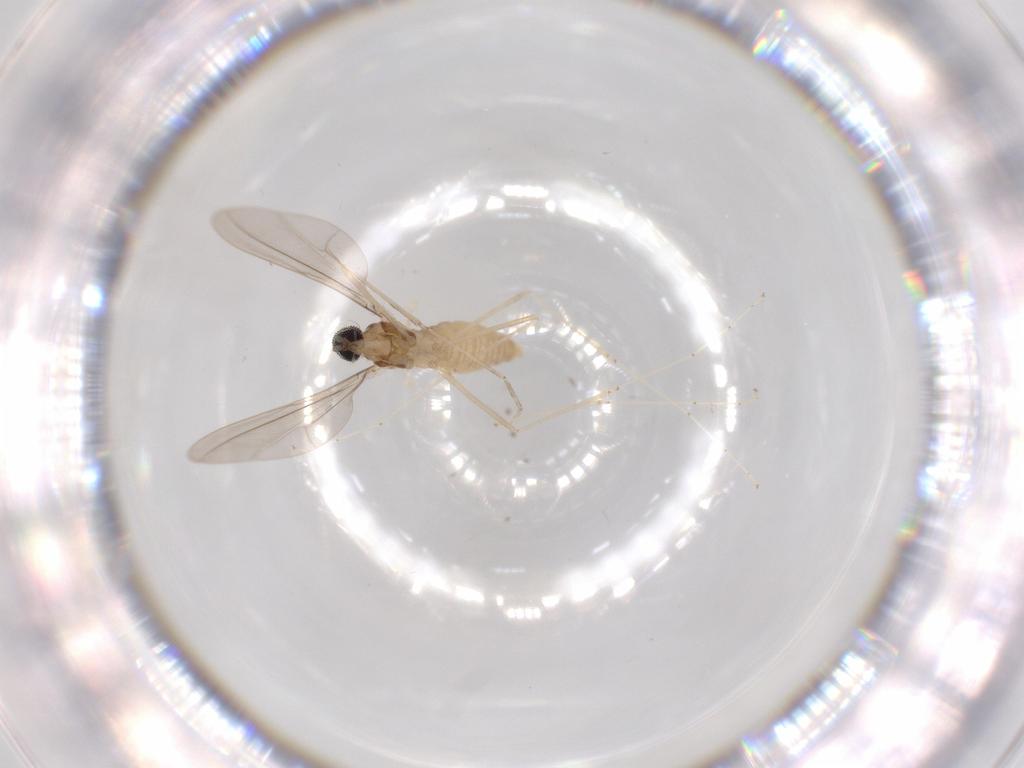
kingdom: Animalia
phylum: Arthropoda
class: Insecta
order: Diptera
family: Cecidomyiidae
